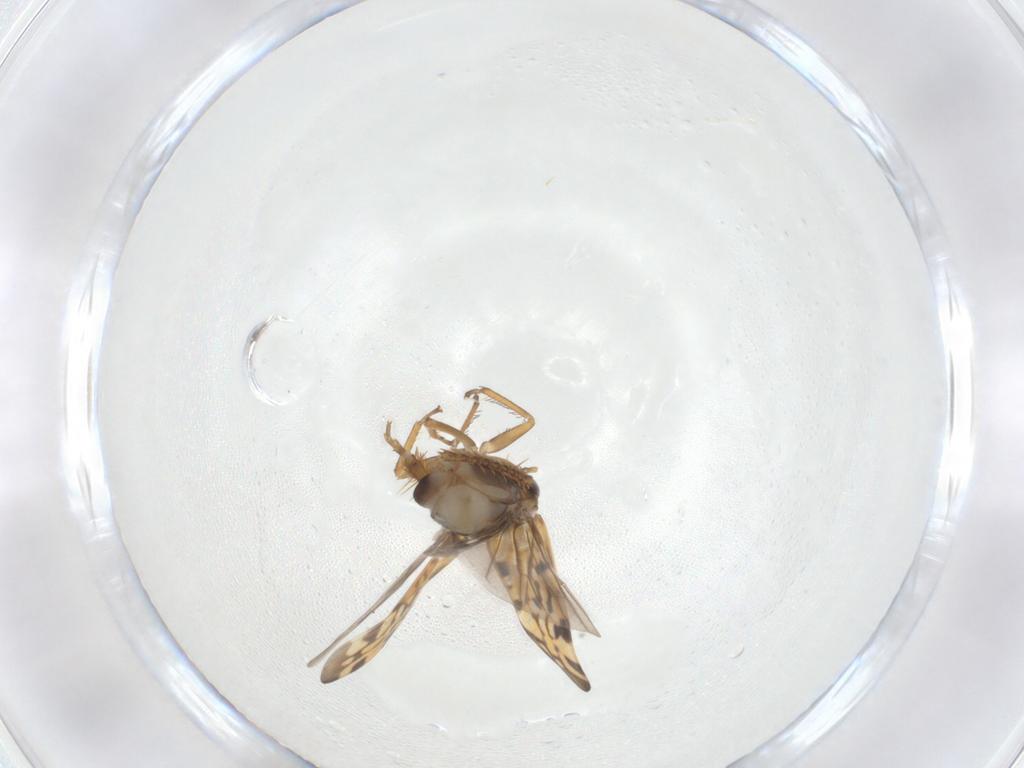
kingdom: Animalia
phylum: Arthropoda
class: Insecta
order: Hemiptera
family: Cicadellidae
